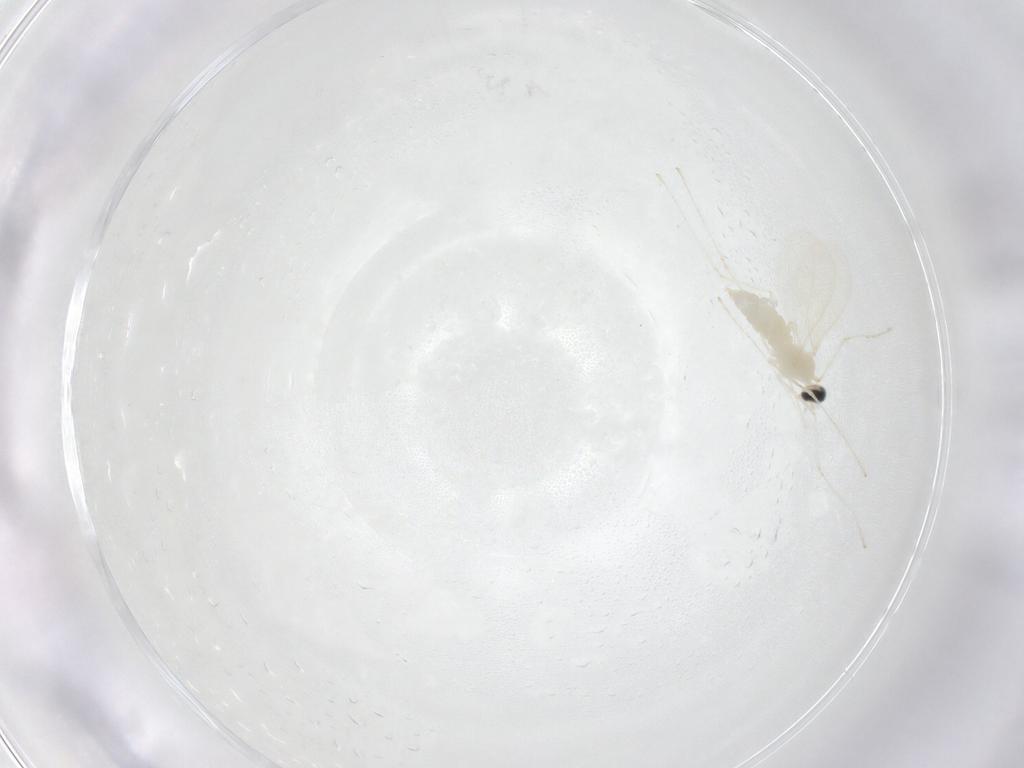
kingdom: Animalia
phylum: Arthropoda
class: Insecta
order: Diptera
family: Cecidomyiidae
